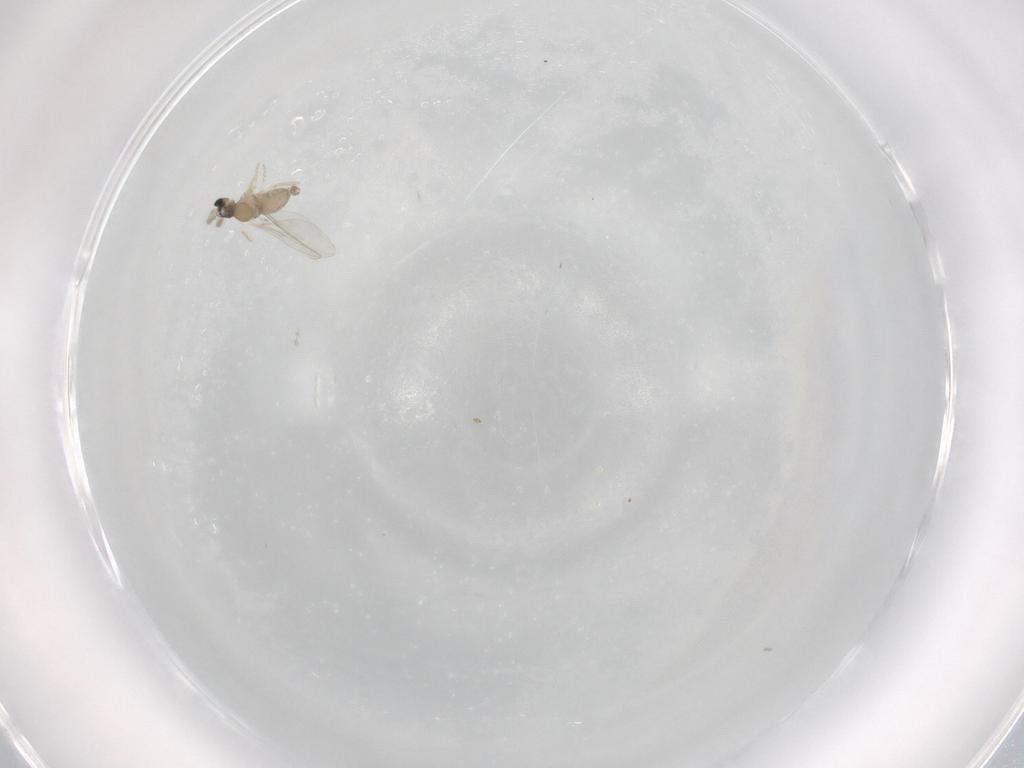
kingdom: Animalia
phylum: Arthropoda
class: Insecta
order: Diptera
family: Cecidomyiidae
